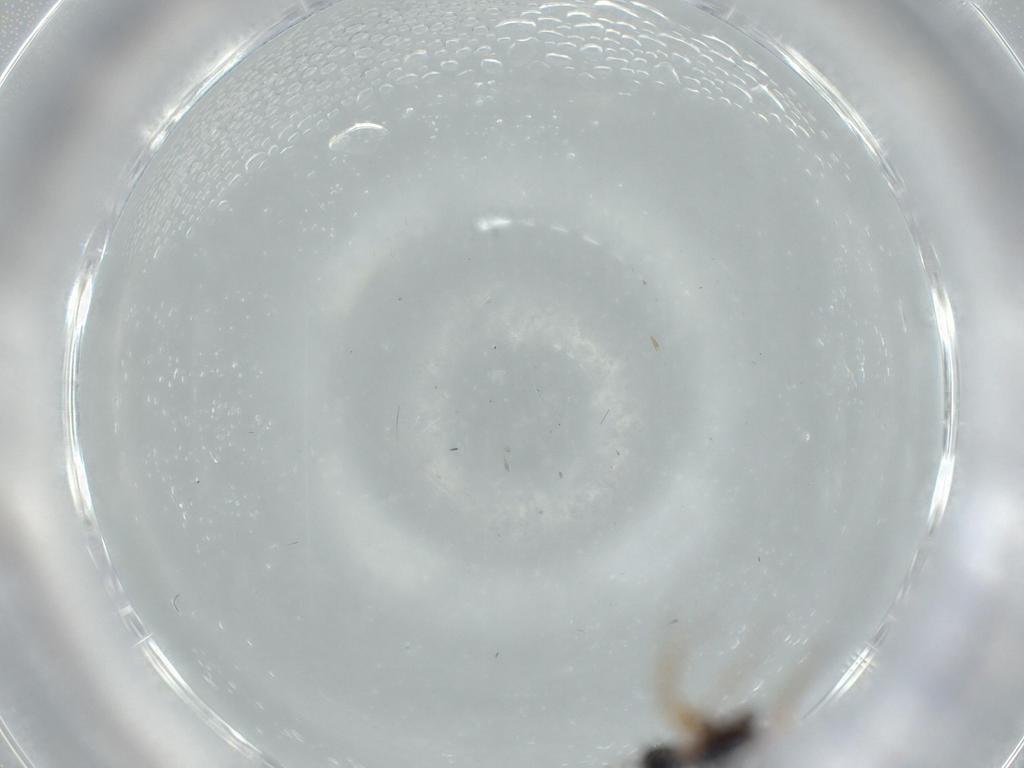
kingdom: Animalia
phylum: Arthropoda
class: Insecta
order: Hymenoptera
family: Figitidae
